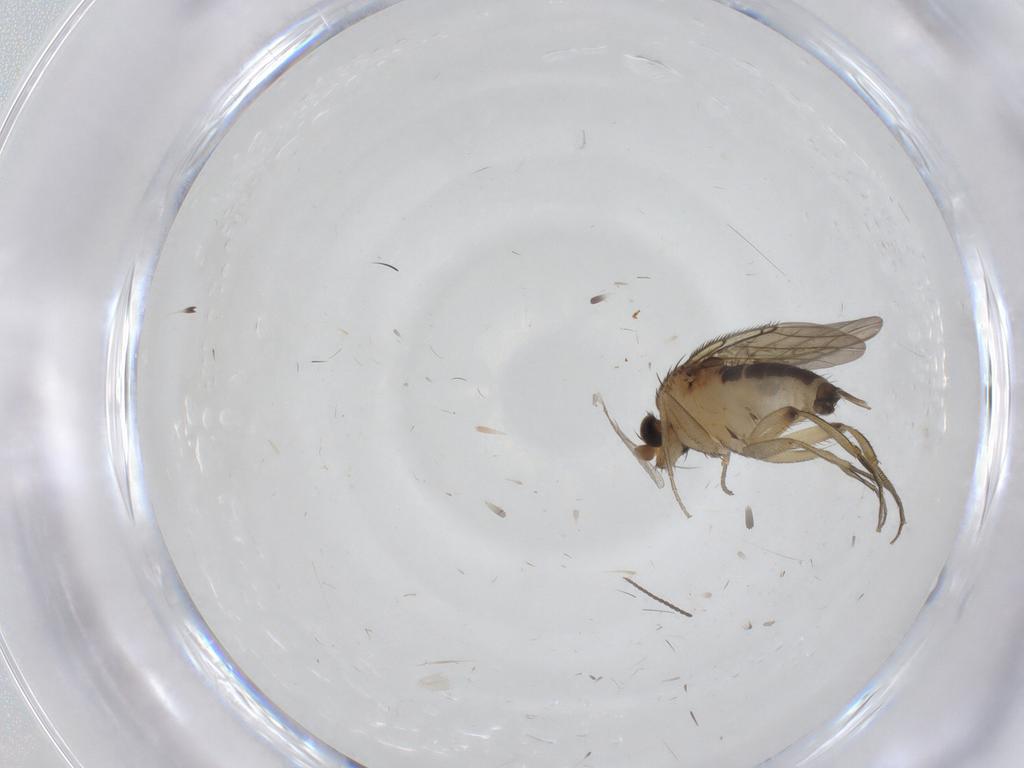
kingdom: Animalia
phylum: Arthropoda
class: Insecta
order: Diptera
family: Phoridae
